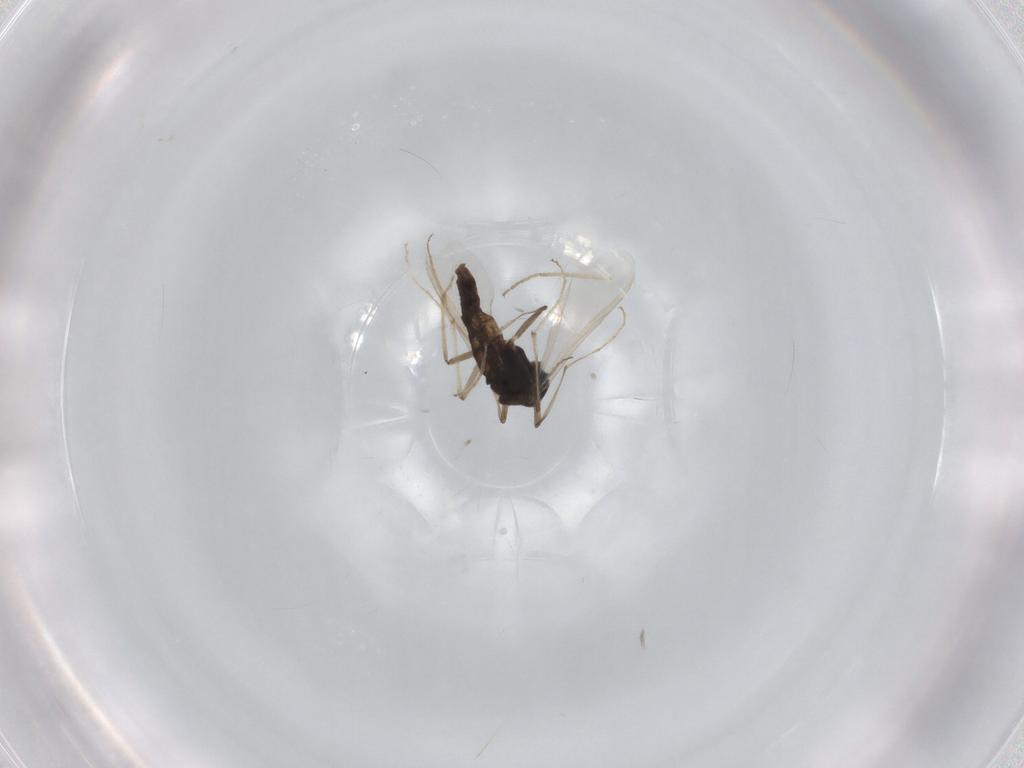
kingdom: Animalia
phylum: Arthropoda
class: Insecta
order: Diptera
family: Chironomidae
